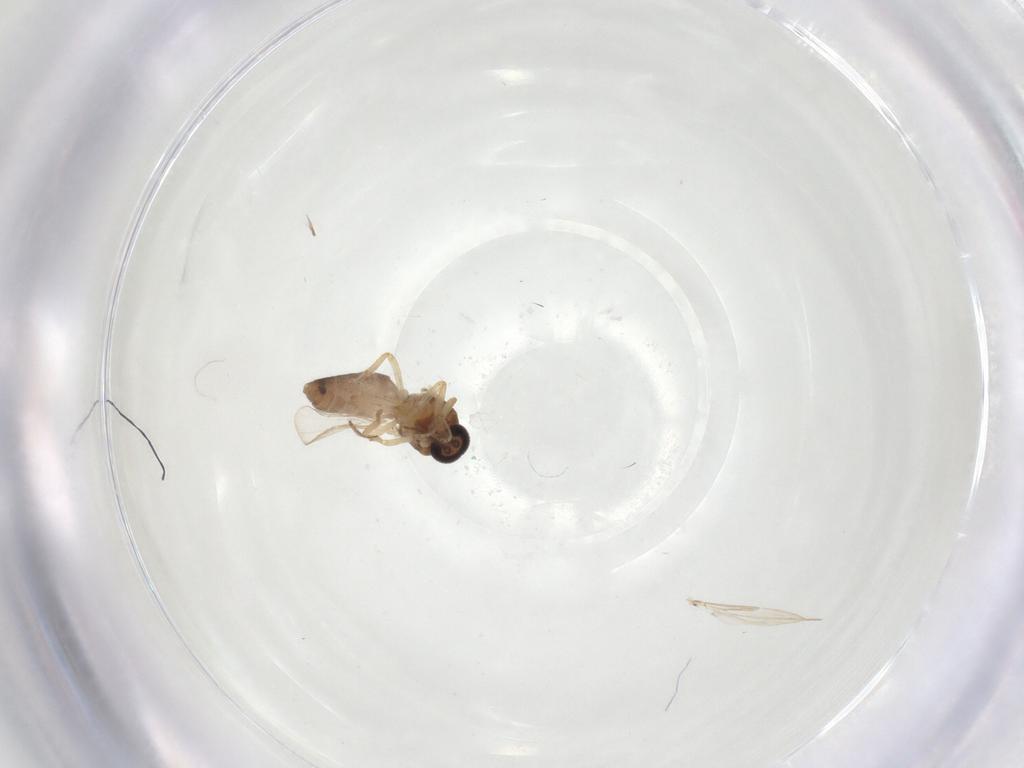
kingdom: Animalia
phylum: Arthropoda
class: Insecta
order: Diptera
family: Ceratopogonidae
